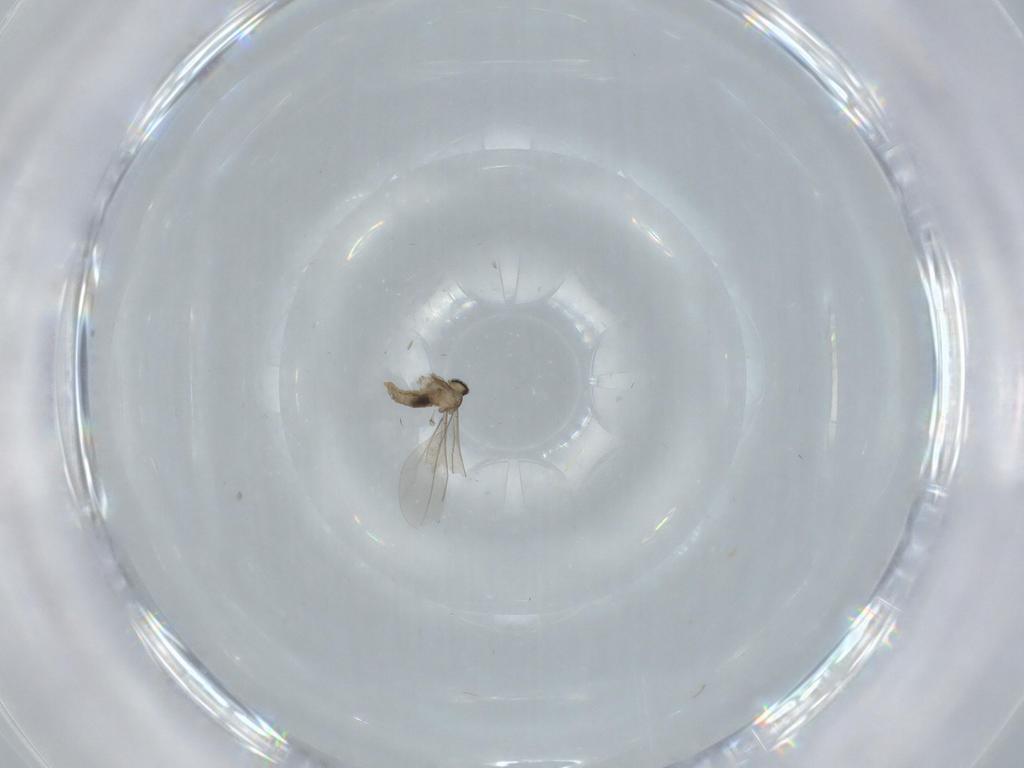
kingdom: Animalia
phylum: Arthropoda
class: Insecta
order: Diptera
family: Cecidomyiidae
